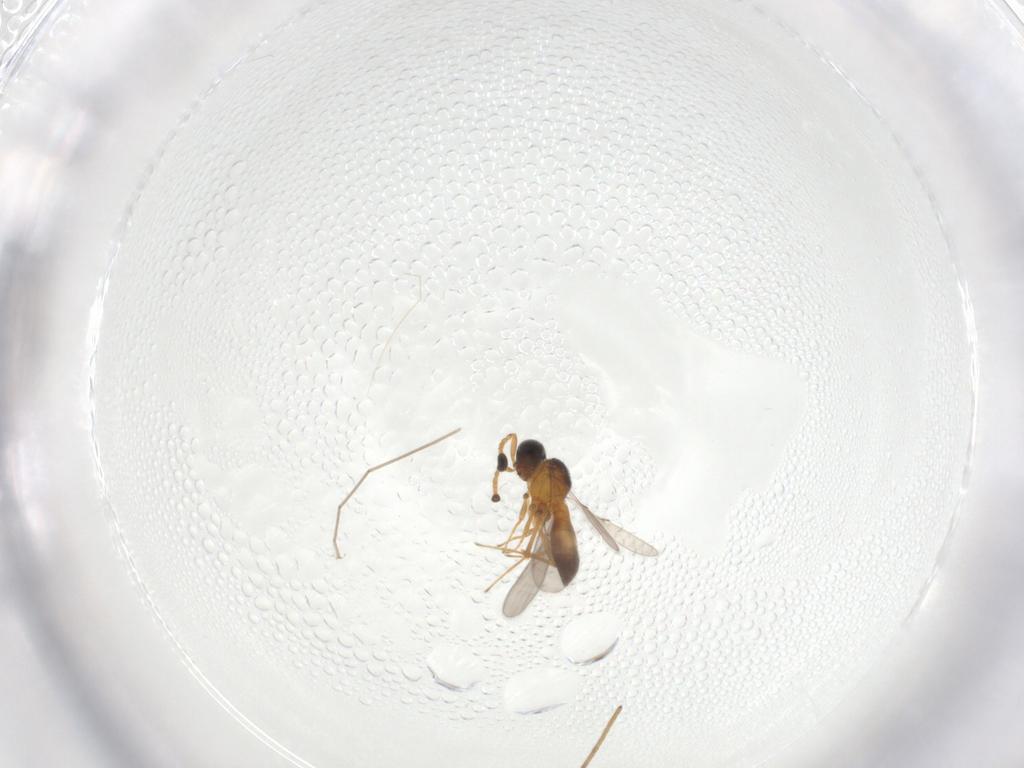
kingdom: Animalia
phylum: Arthropoda
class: Insecta
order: Hymenoptera
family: Scelionidae
